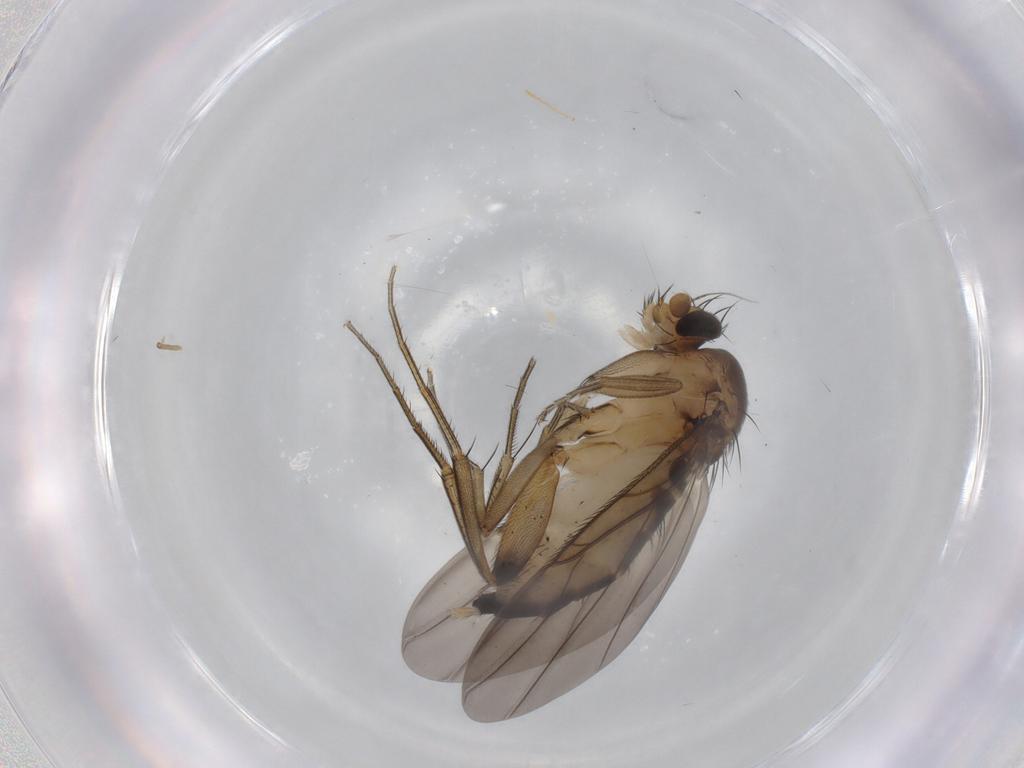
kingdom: Animalia
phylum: Arthropoda
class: Insecta
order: Diptera
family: Phoridae
